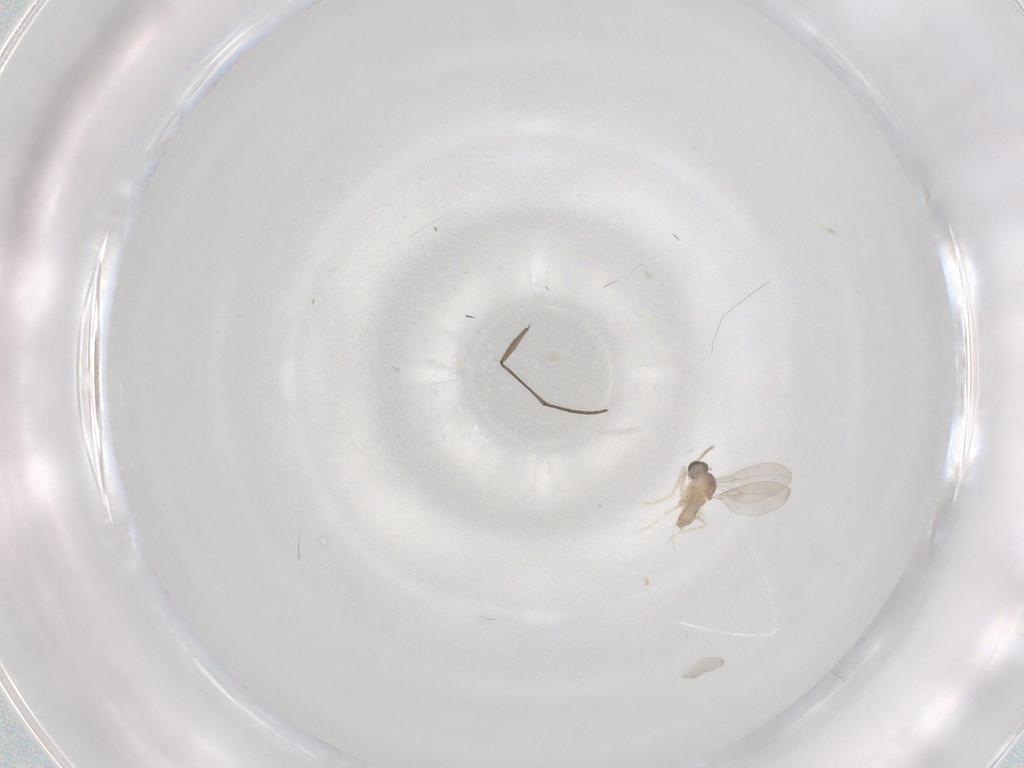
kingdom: Animalia
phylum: Arthropoda
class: Insecta
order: Diptera
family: Sciaridae
